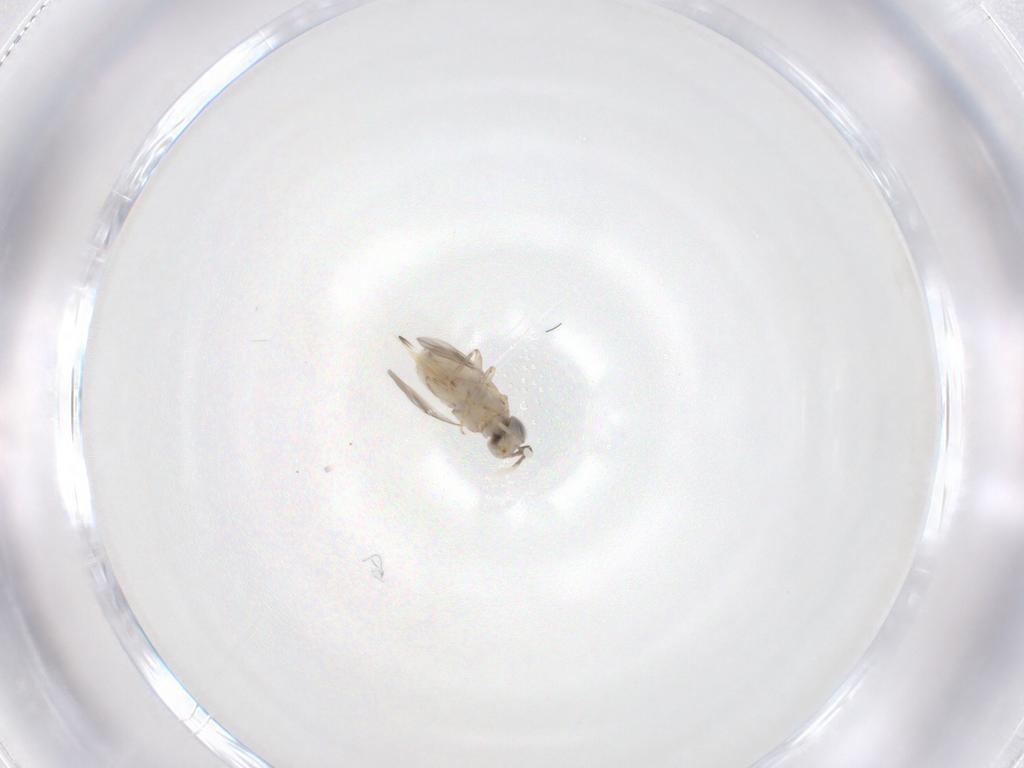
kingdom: Animalia
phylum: Arthropoda
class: Insecta
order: Hymenoptera
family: Encyrtidae
